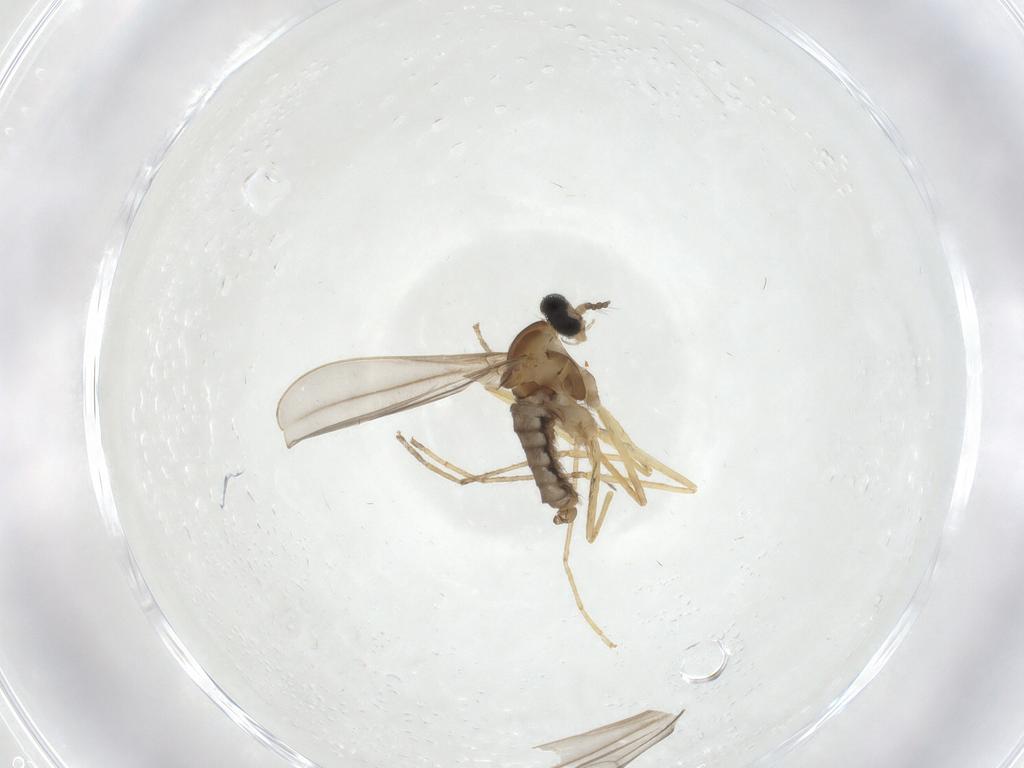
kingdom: Animalia
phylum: Arthropoda
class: Insecta
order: Diptera
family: Cecidomyiidae
